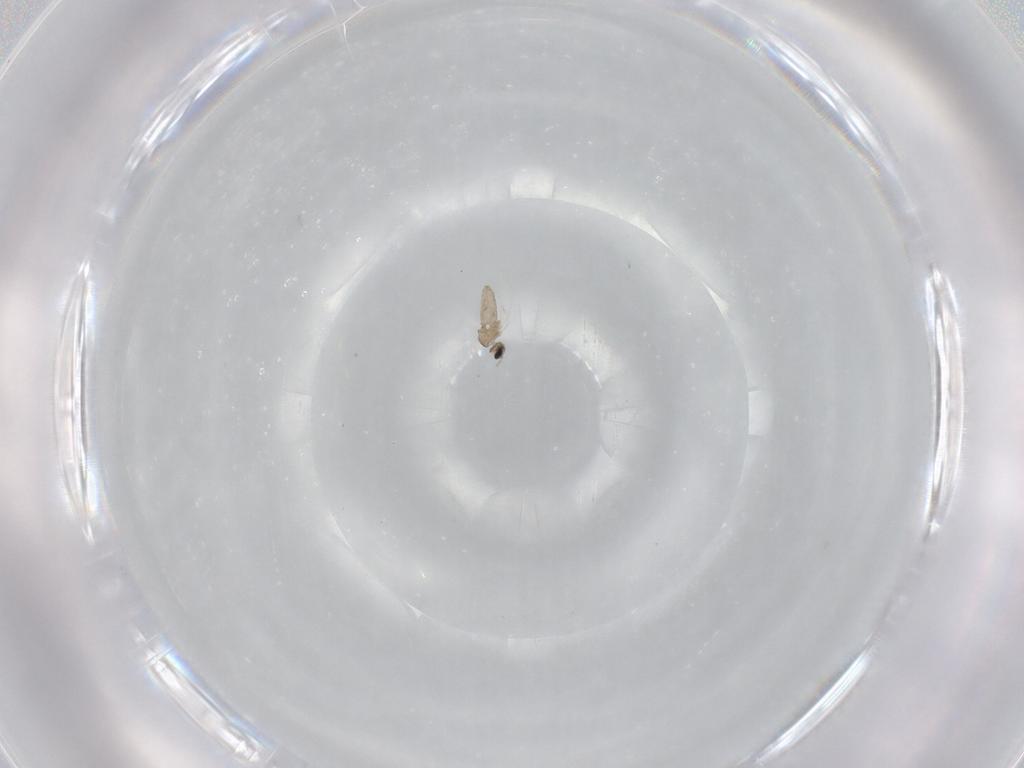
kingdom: Animalia
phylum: Arthropoda
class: Insecta
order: Diptera
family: Cecidomyiidae
